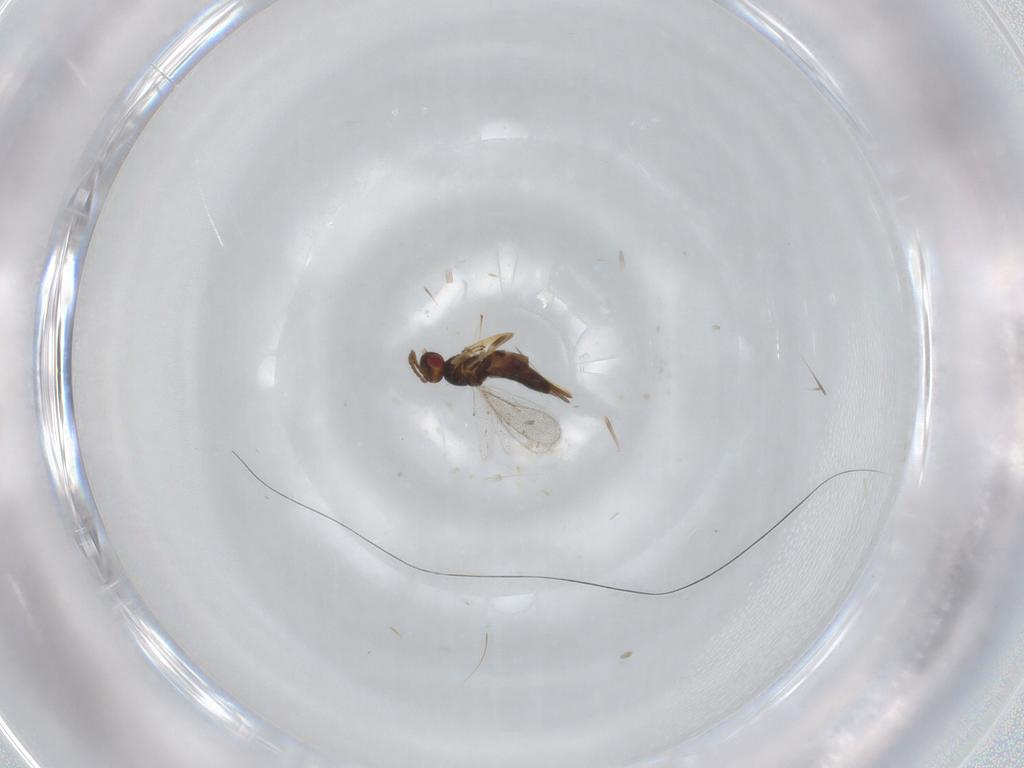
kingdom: Animalia
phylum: Arthropoda
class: Insecta
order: Hymenoptera
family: Eulophidae
